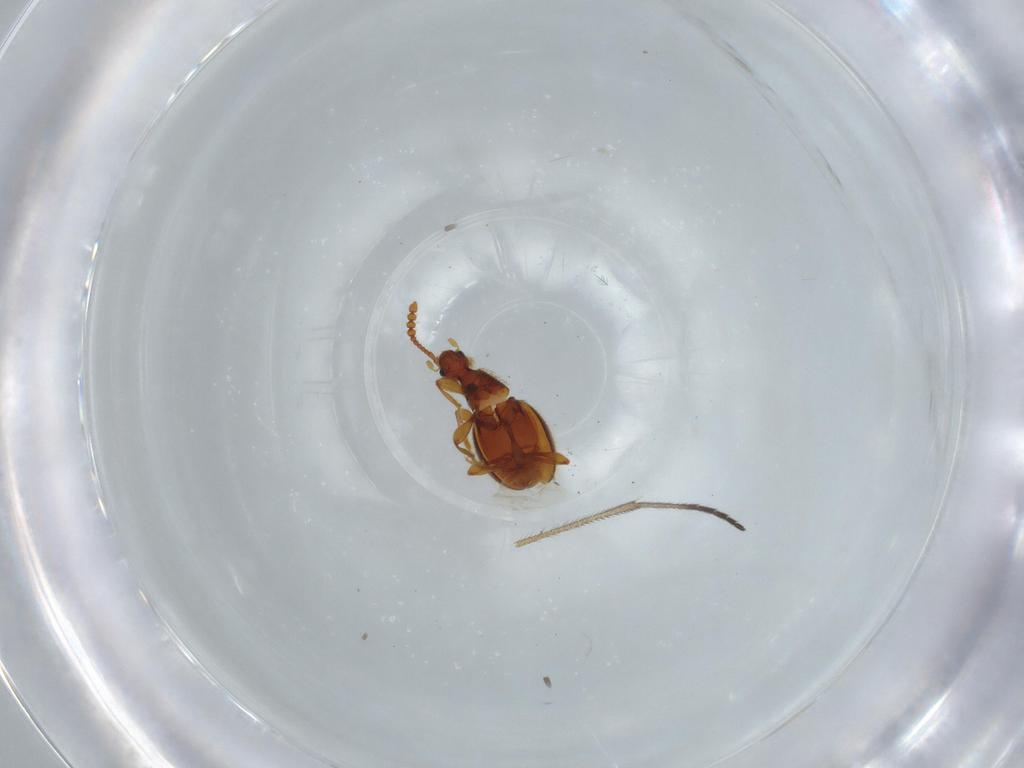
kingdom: Animalia
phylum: Arthropoda
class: Insecta
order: Coleoptera
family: Staphylinidae
